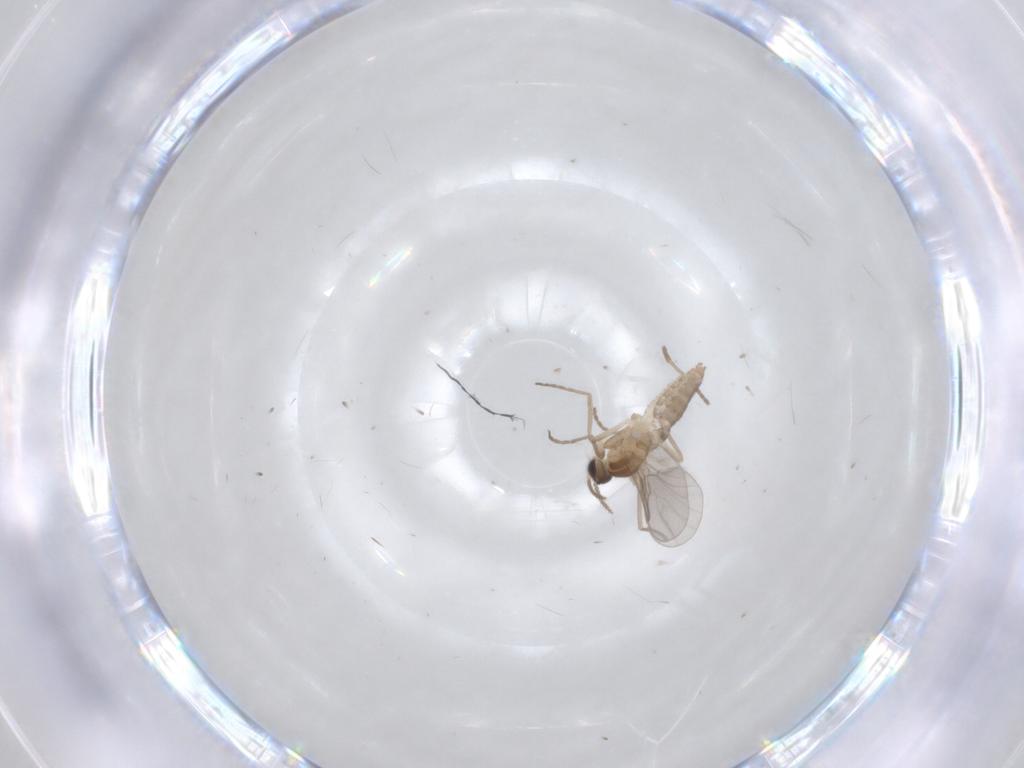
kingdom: Animalia
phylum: Arthropoda
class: Insecta
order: Diptera
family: Cecidomyiidae
